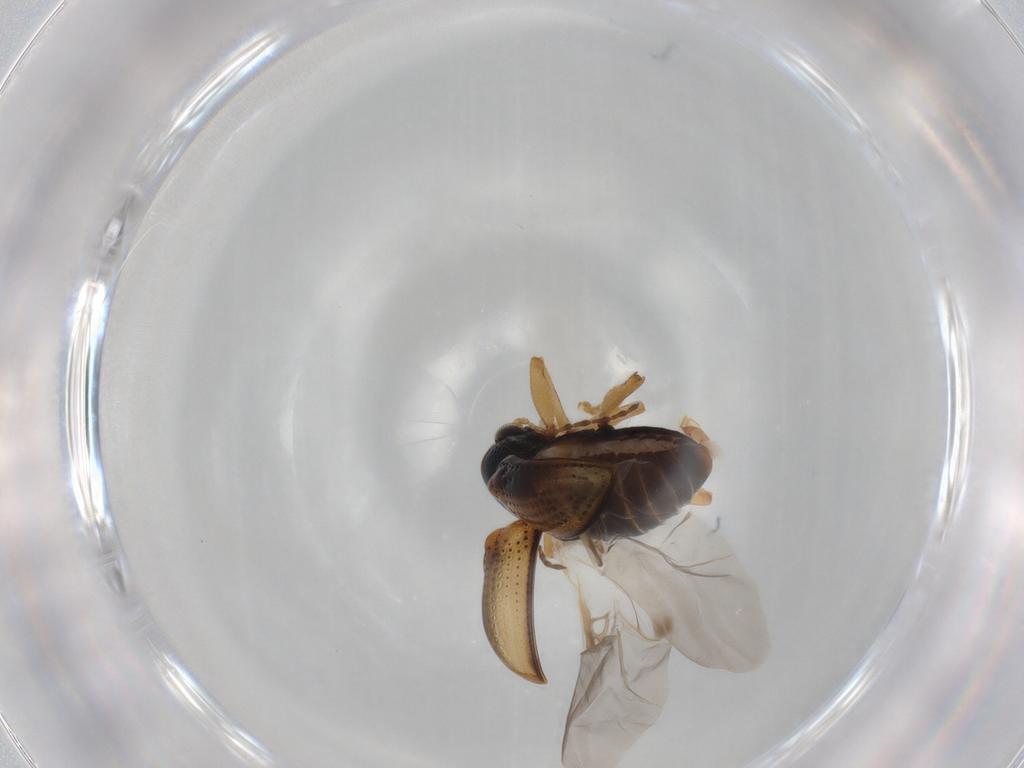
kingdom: Animalia
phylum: Arthropoda
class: Insecta
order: Coleoptera
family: Chrysomelidae
